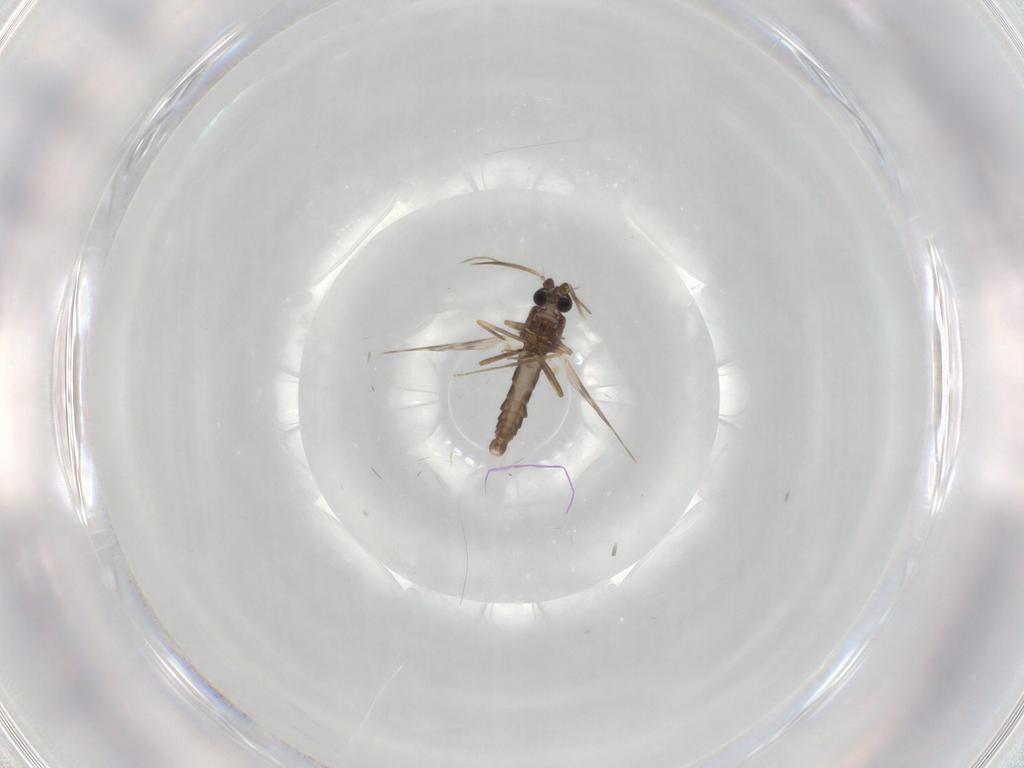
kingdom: Animalia
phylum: Arthropoda
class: Insecta
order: Diptera
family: Ceratopogonidae
